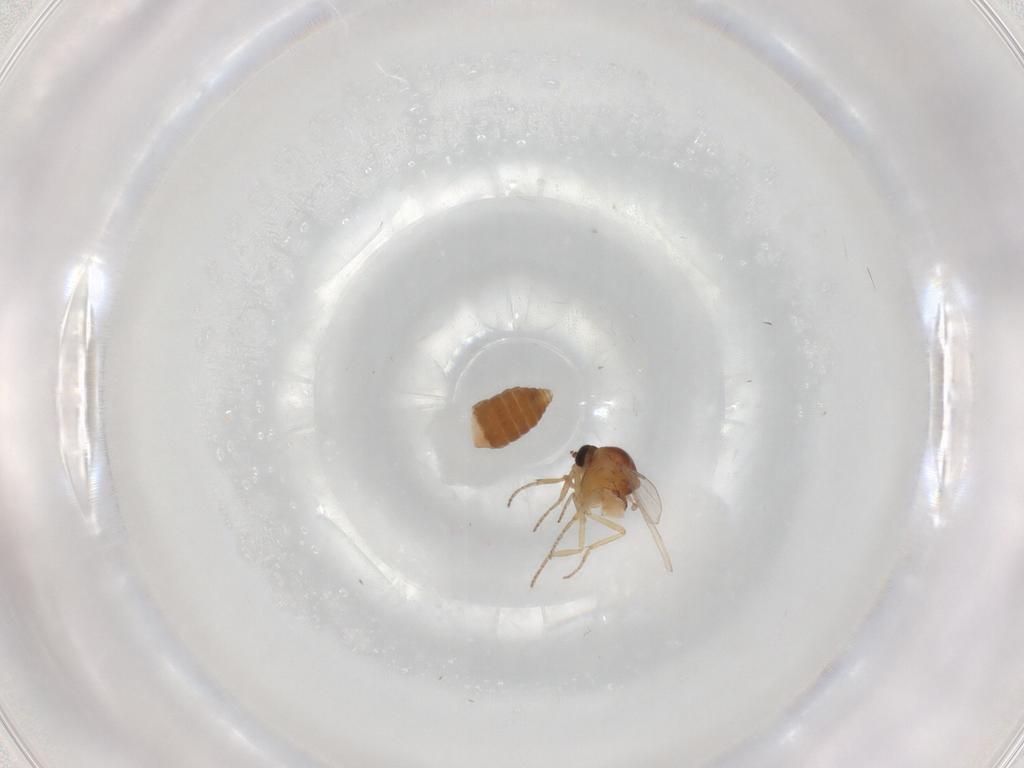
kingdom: Animalia
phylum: Arthropoda
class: Insecta
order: Diptera
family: Ceratopogonidae
